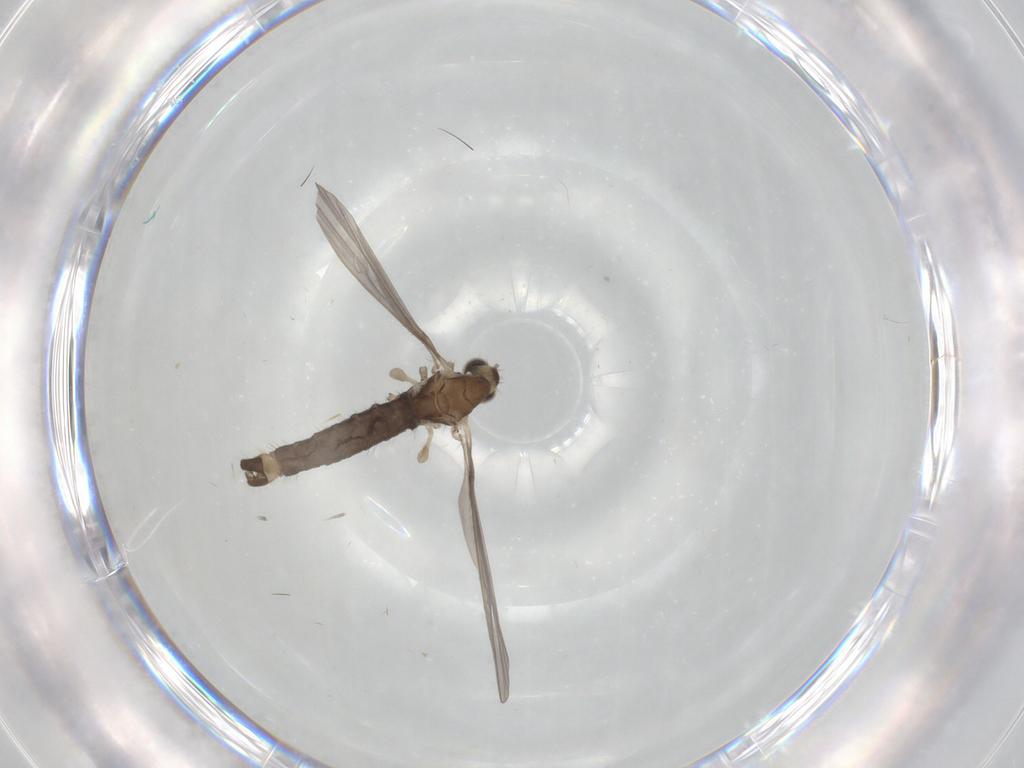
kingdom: Animalia
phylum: Arthropoda
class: Insecta
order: Diptera
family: Limoniidae
